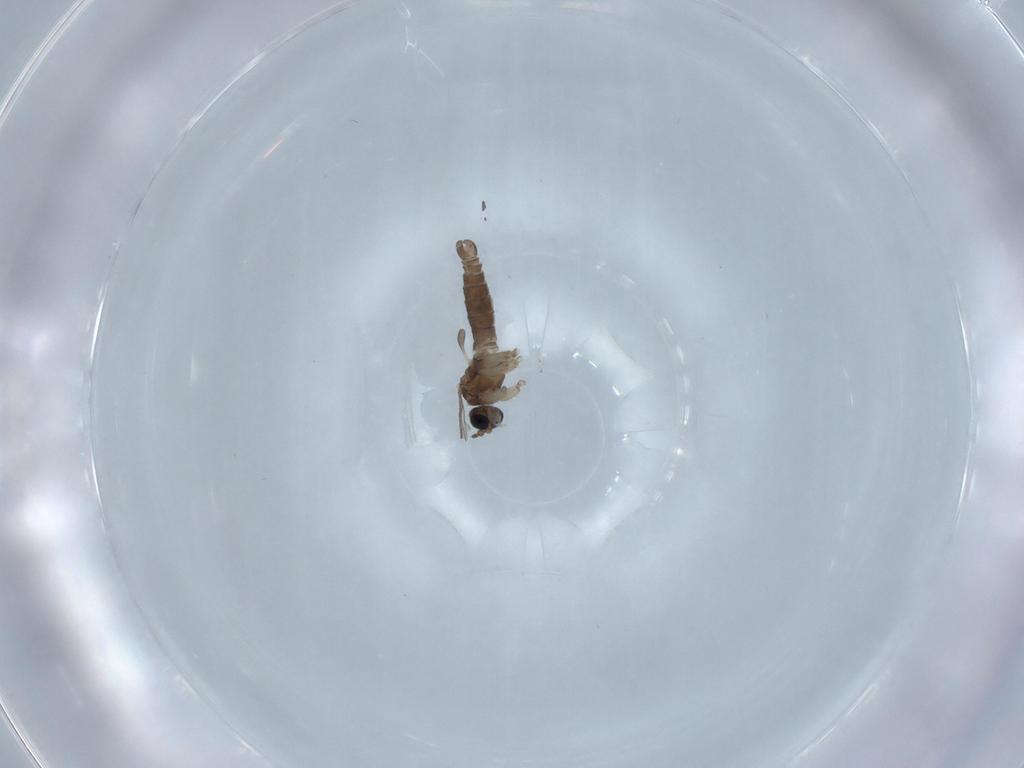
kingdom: Animalia
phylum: Arthropoda
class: Insecta
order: Diptera
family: Sciaridae
